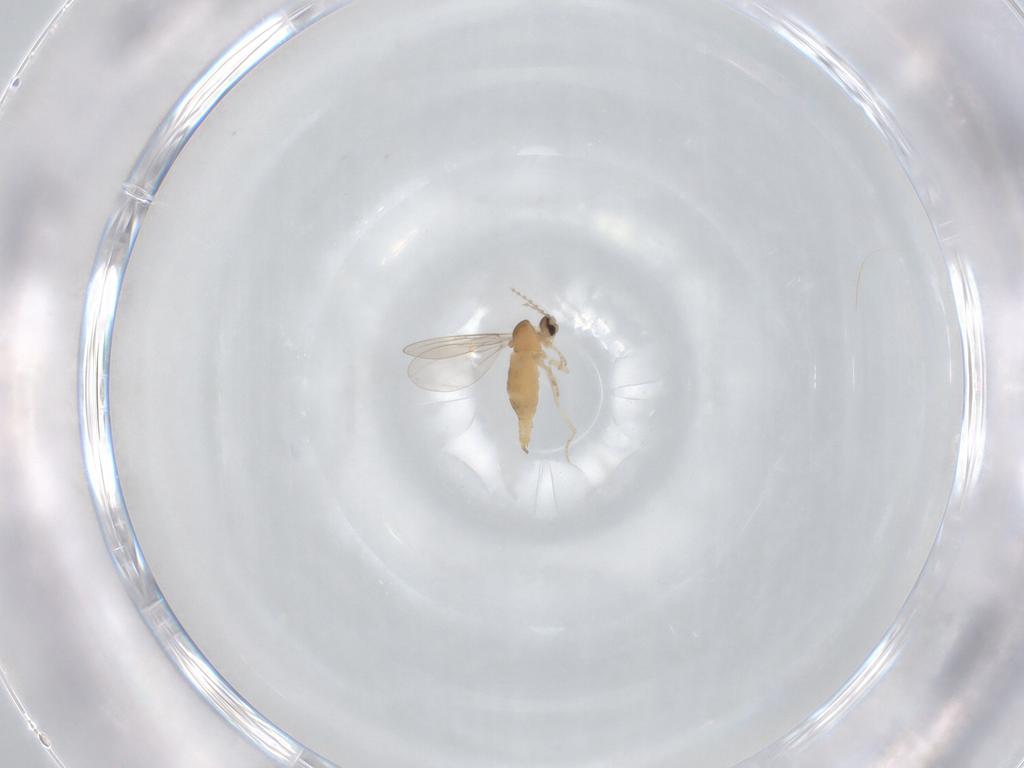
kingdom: Animalia
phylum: Arthropoda
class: Insecta
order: Diptera
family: Cecidomyiidae
